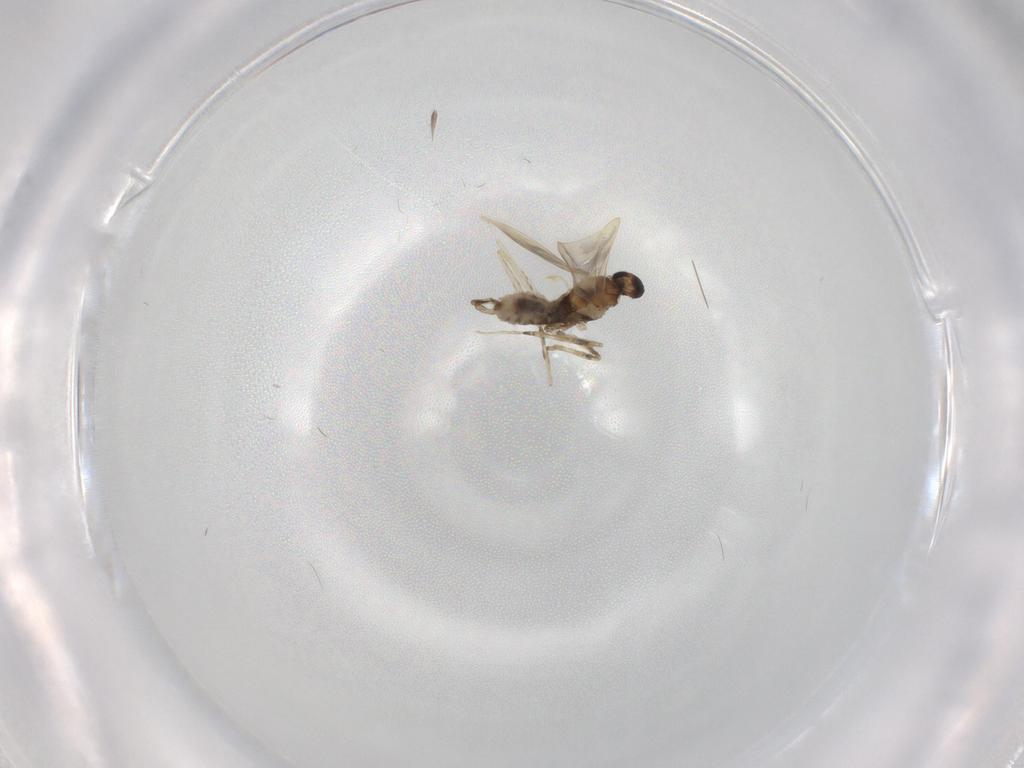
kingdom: Animalia
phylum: Arthropoda
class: Insecta
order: Diptera
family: Cecidomyiidae
